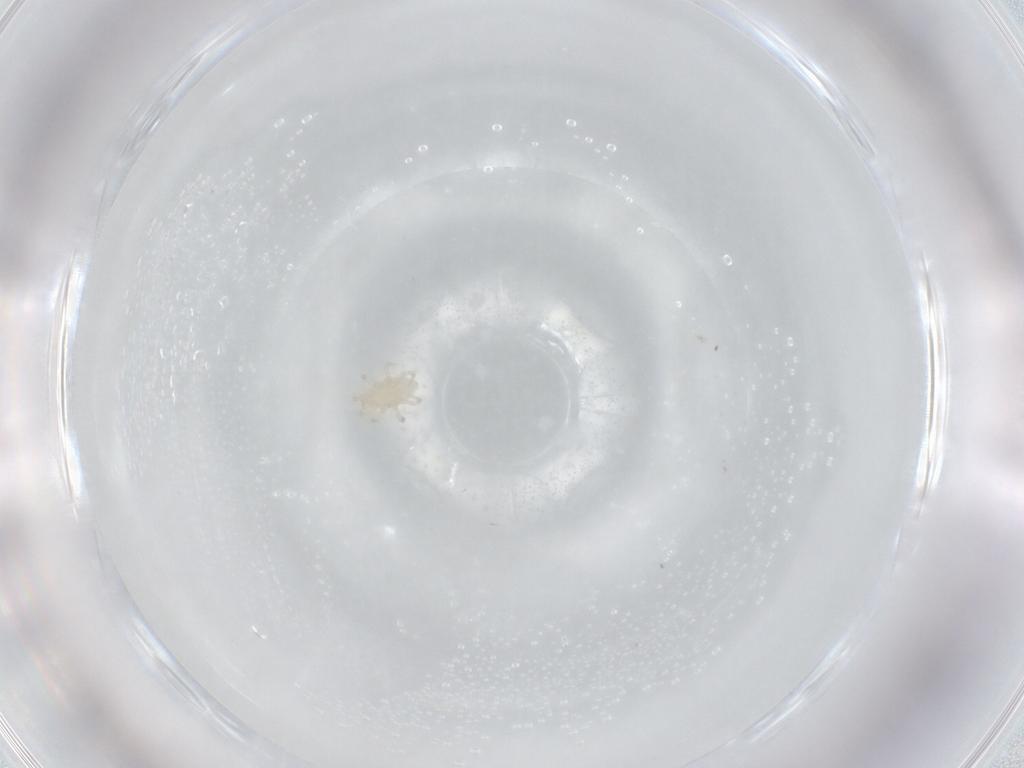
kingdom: Animalia
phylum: Arthropoda
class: Arachnida
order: Mesostigmata
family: Blattisociidae
